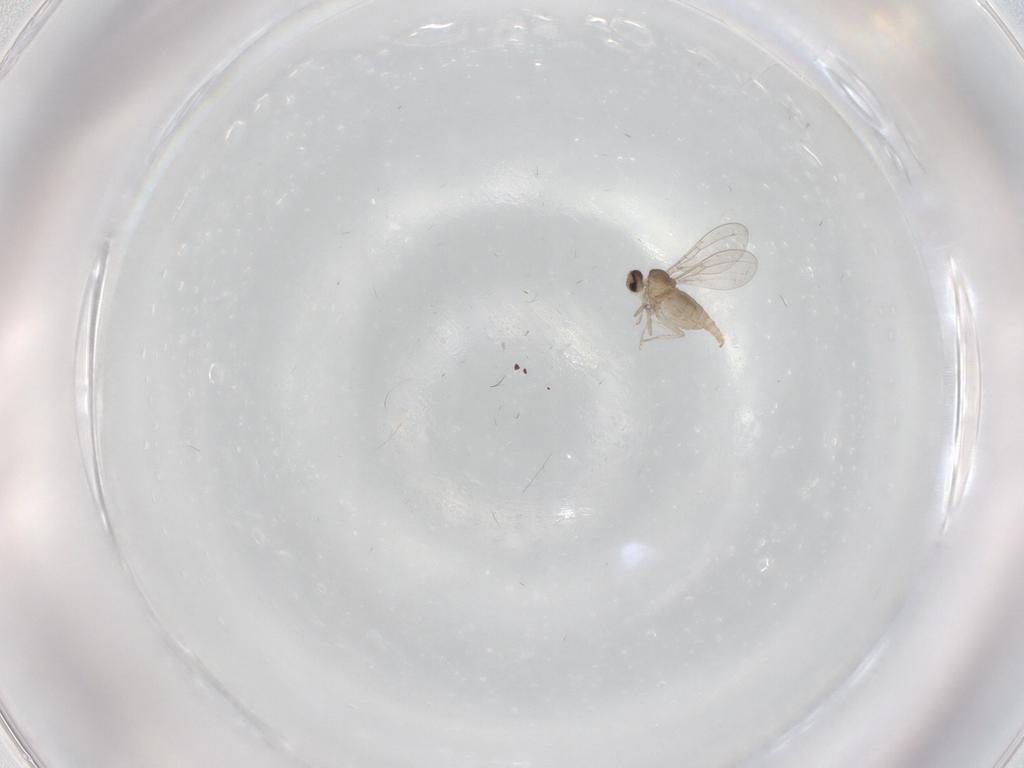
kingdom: Animalia
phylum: Arthropoda
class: Insecta
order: Diptera
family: Cecidomyiidae
